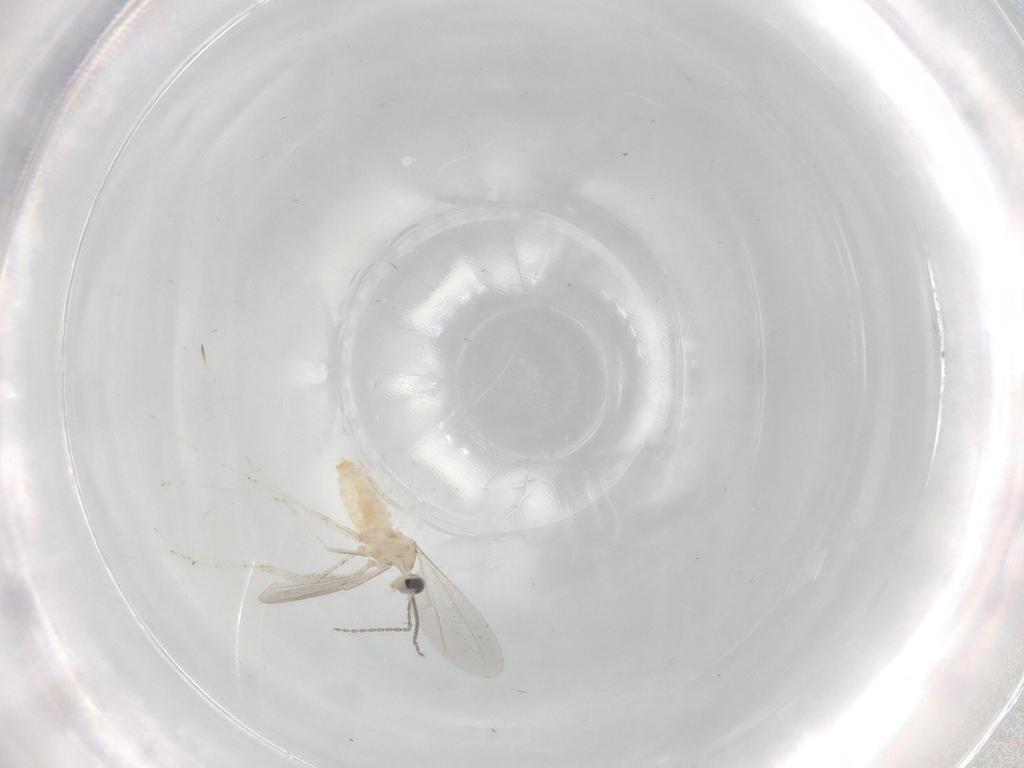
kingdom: Animalia
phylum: Arthropoda
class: Insecta
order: Diptera
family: Cecidomyiidae
